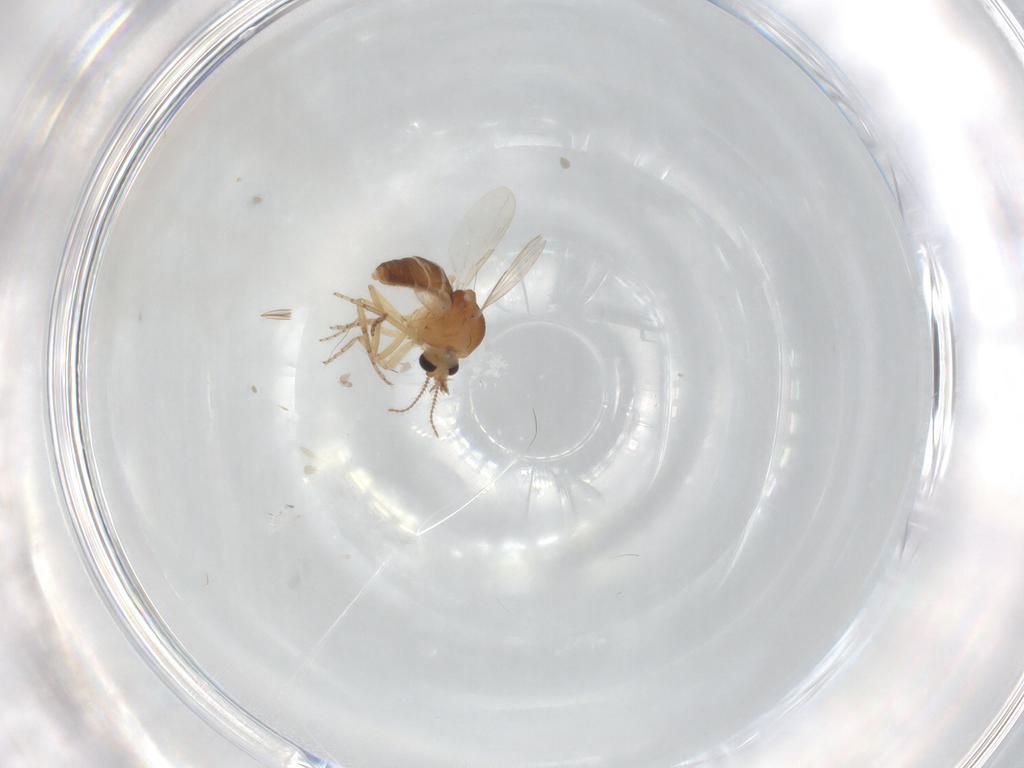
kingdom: Animalia
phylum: Arthropoda
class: Insecta
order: Diptera
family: Ceratopogonidae
